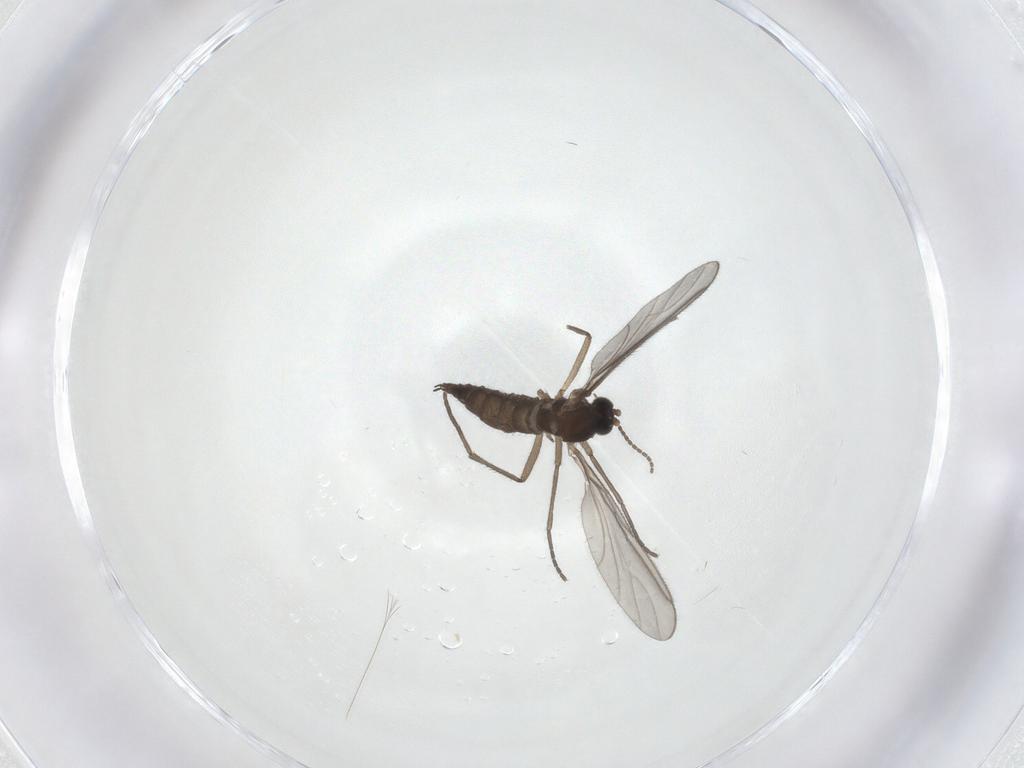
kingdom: Animalia
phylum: Arthropoda
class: Insecta
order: Diptera
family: Sciaridae
